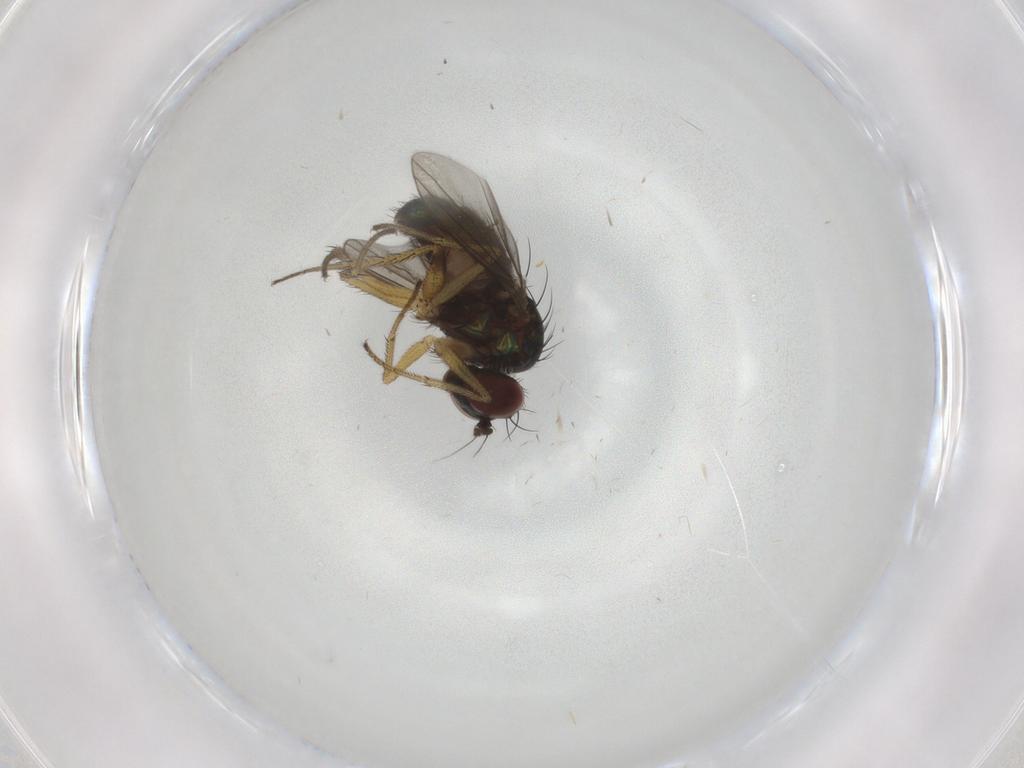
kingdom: Animalia
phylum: Arthropoda
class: Insecta
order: Diptera
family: Dolichopodidae
